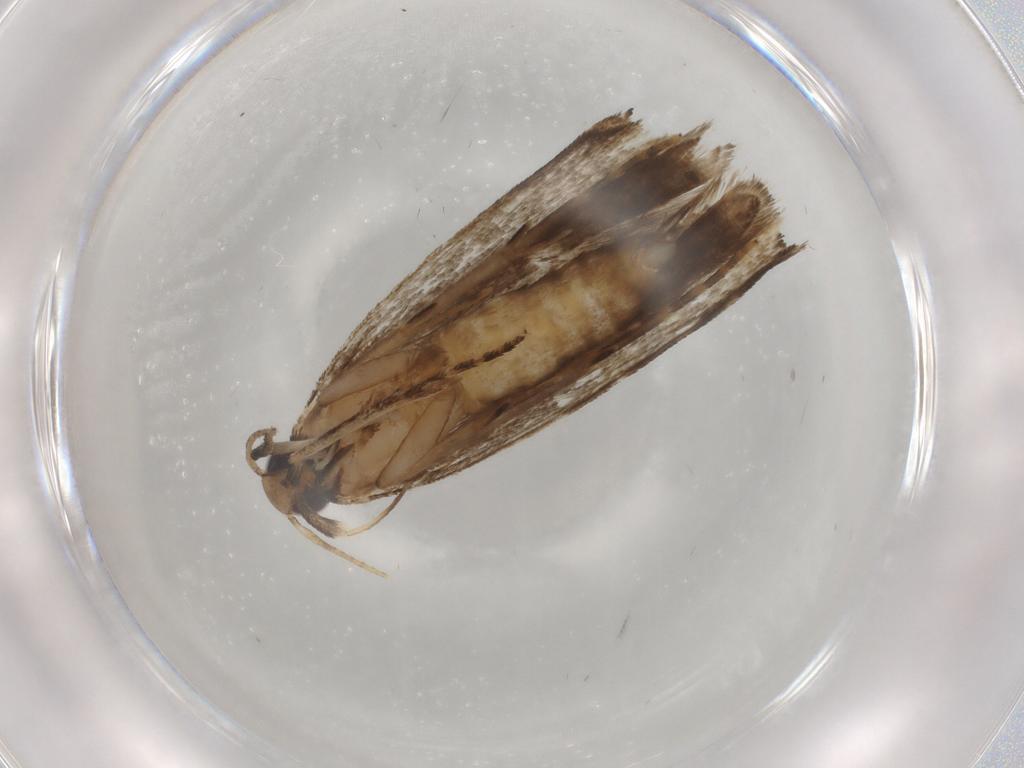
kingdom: Animalia
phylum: Arthropoda
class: Insecta
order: Lepidoptera
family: Gelechiidae
